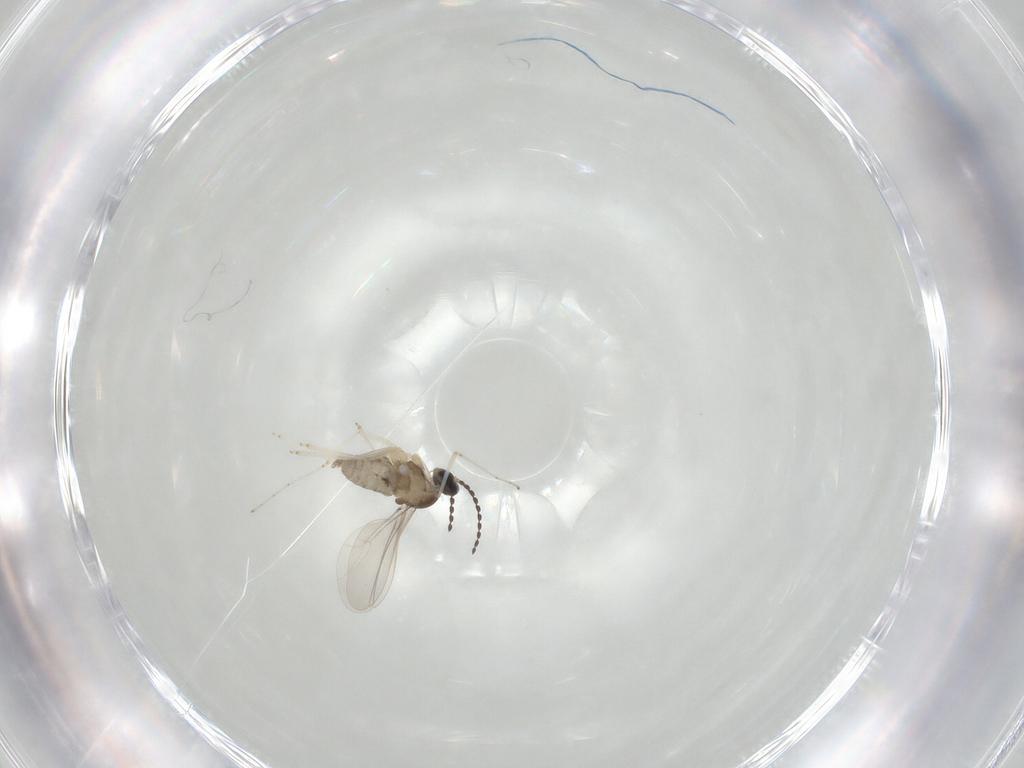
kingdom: Animalia
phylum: Arthropoda
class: Insecta
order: Diptera
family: Cecidomyiidae
